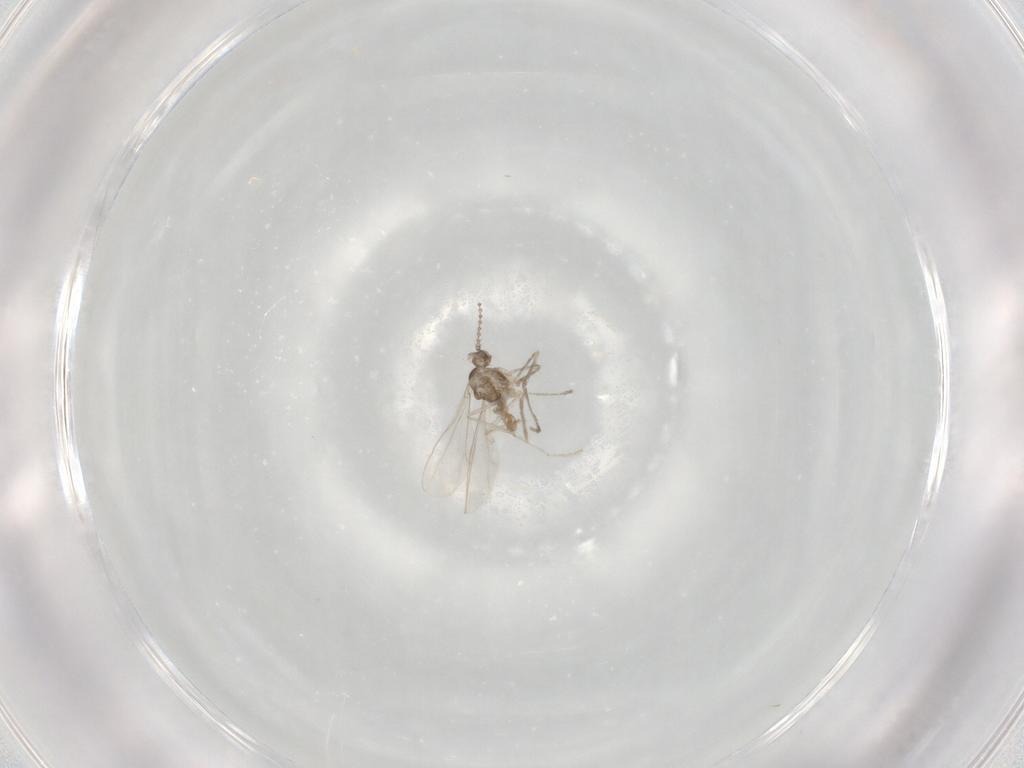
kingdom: Animalia
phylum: Arthropoda
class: Insecta
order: Diptera
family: Cecidomyiidae
